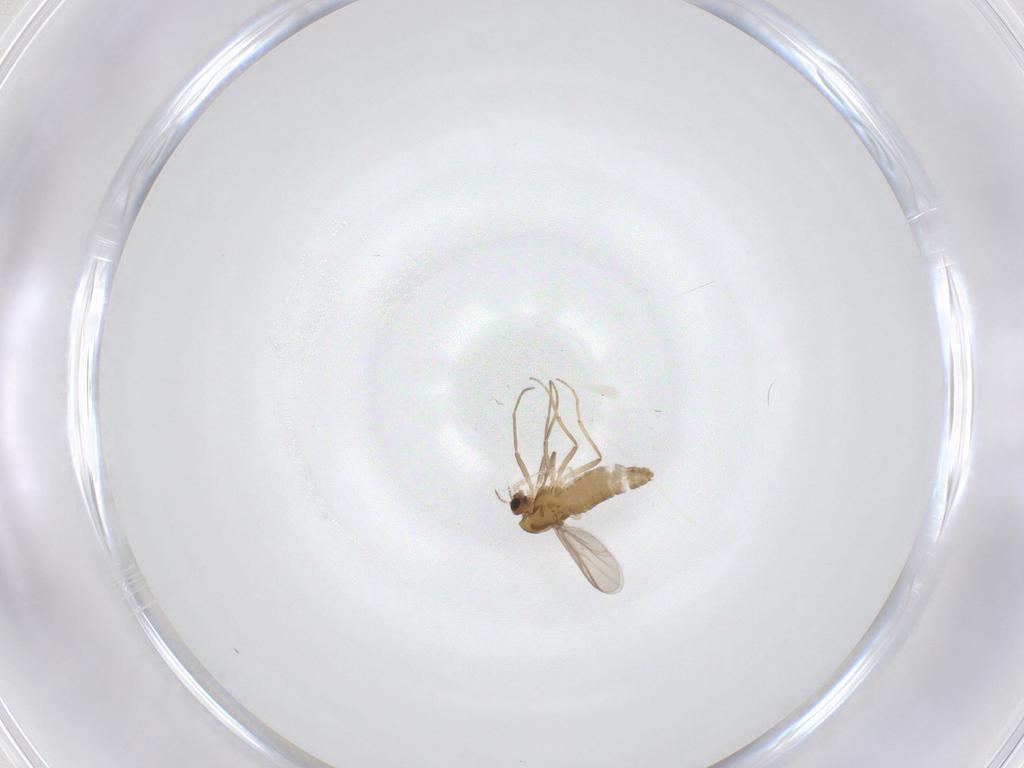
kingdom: Animalia
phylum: Arthropoda
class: Insecta
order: Diptera
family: Chironomidae
